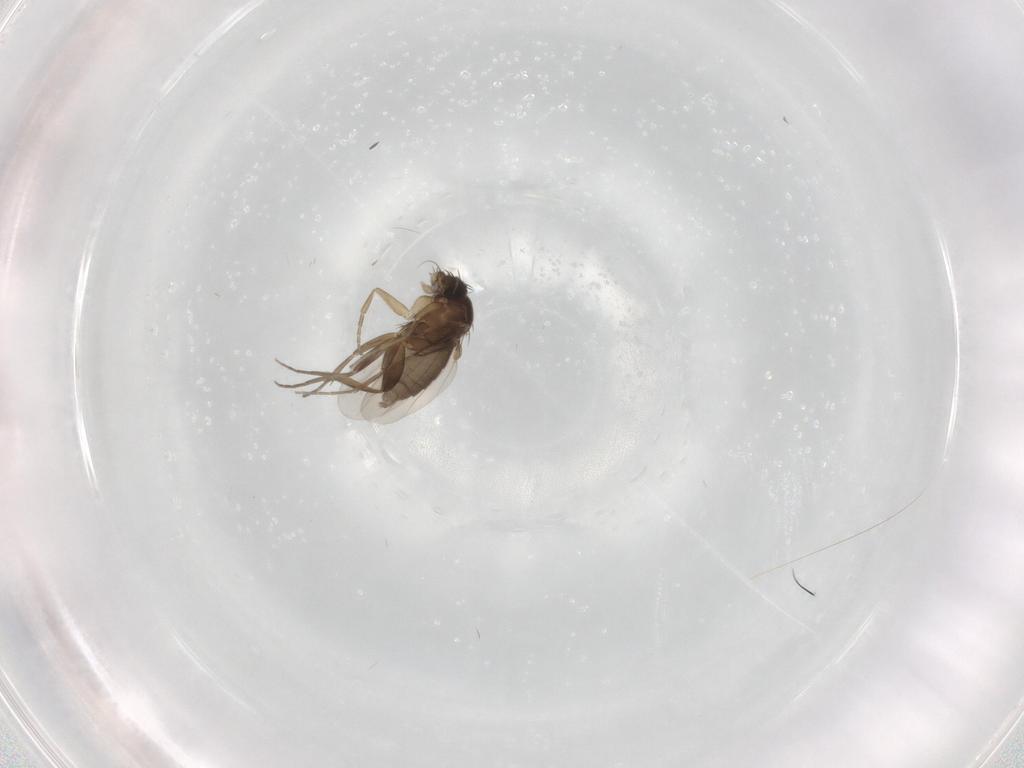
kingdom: Animalia
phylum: Arthropoda
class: Insecta
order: Diptera
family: Phoridae
